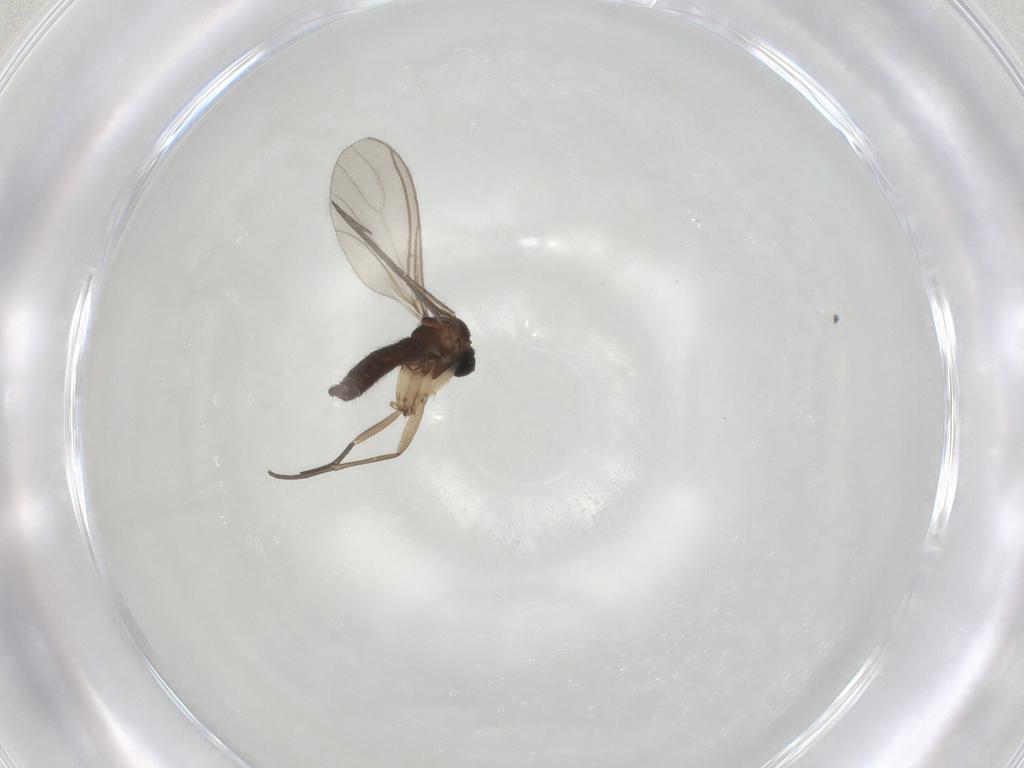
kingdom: Animalia
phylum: Arthropoda
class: Insecta
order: Diptera
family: Sciaridae
